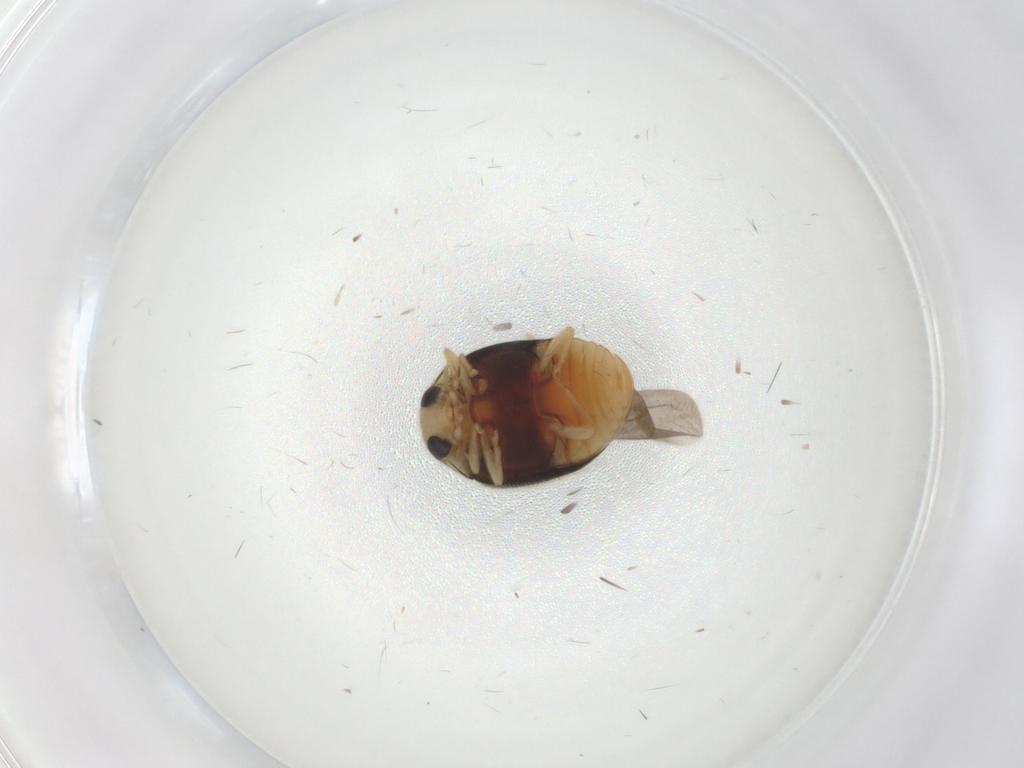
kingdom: Animalia
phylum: Arthropoda
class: Insecta
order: Coleoptera
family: Coccinellidae
